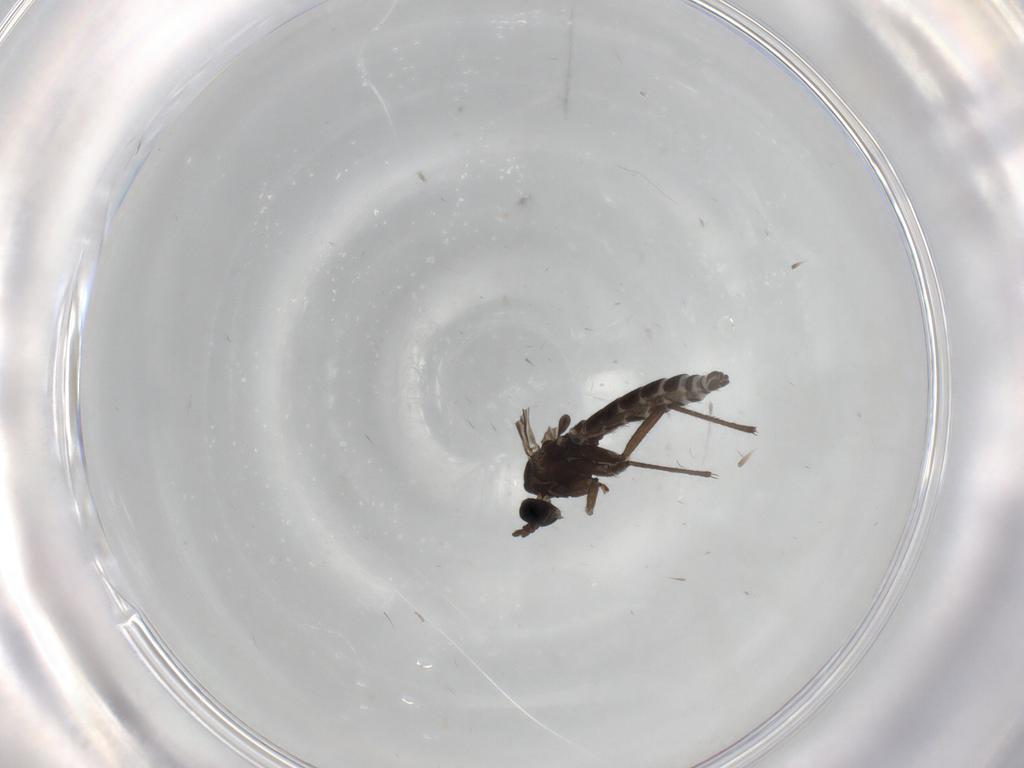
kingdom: Animalia
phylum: Arthropoda
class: Insecta
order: Diptera
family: Sciaridae
